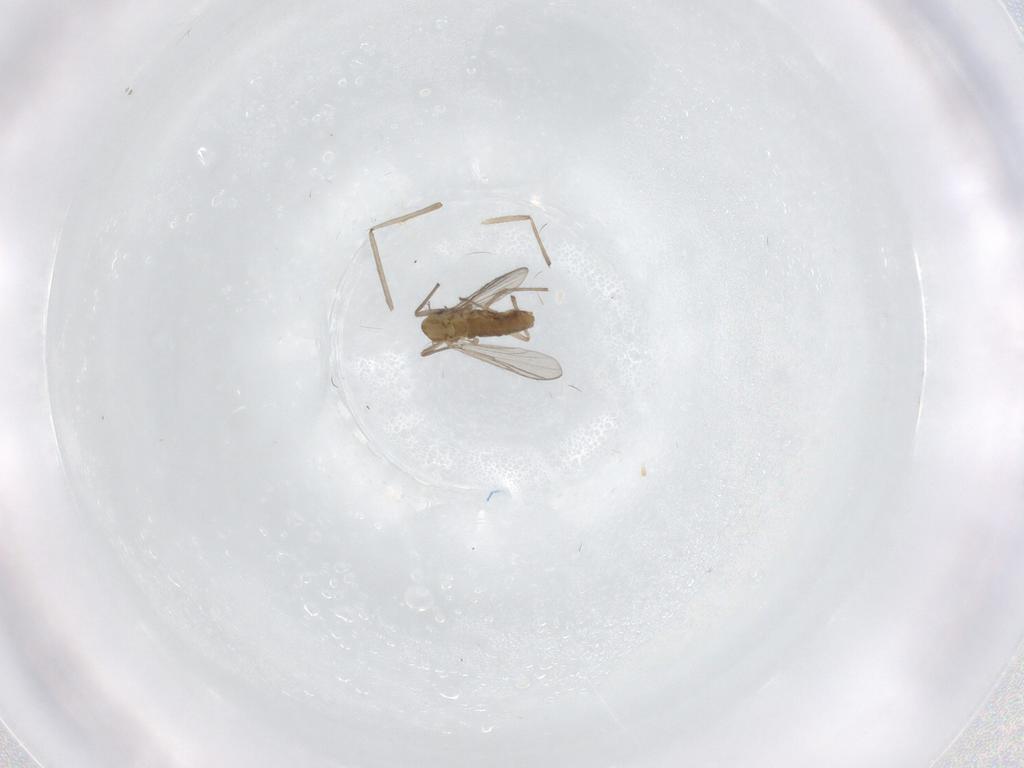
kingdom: Animalia
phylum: Arthropoda
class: Insecta
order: Diptera
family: Chironomidae
